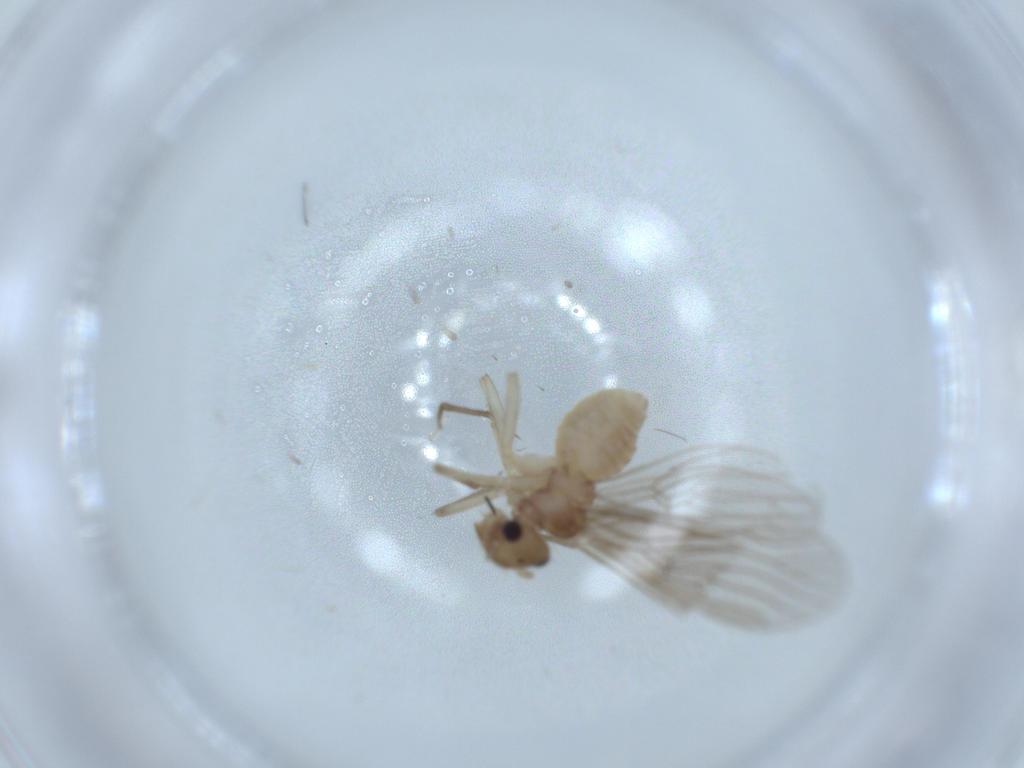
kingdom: Animalia
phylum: Arthropoda
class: Insecta
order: Psocodea
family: Cladiopsocidae
